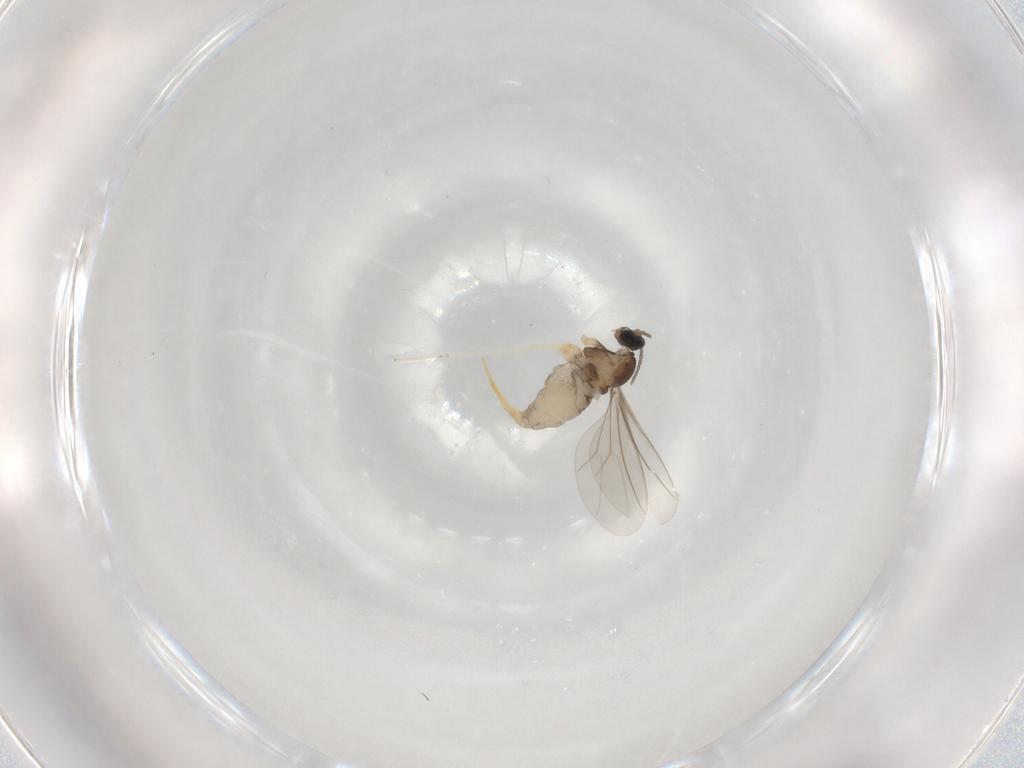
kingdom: Animalia
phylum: Arthropoda
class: Insecta
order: Diptera
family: Cecidomyiidae
